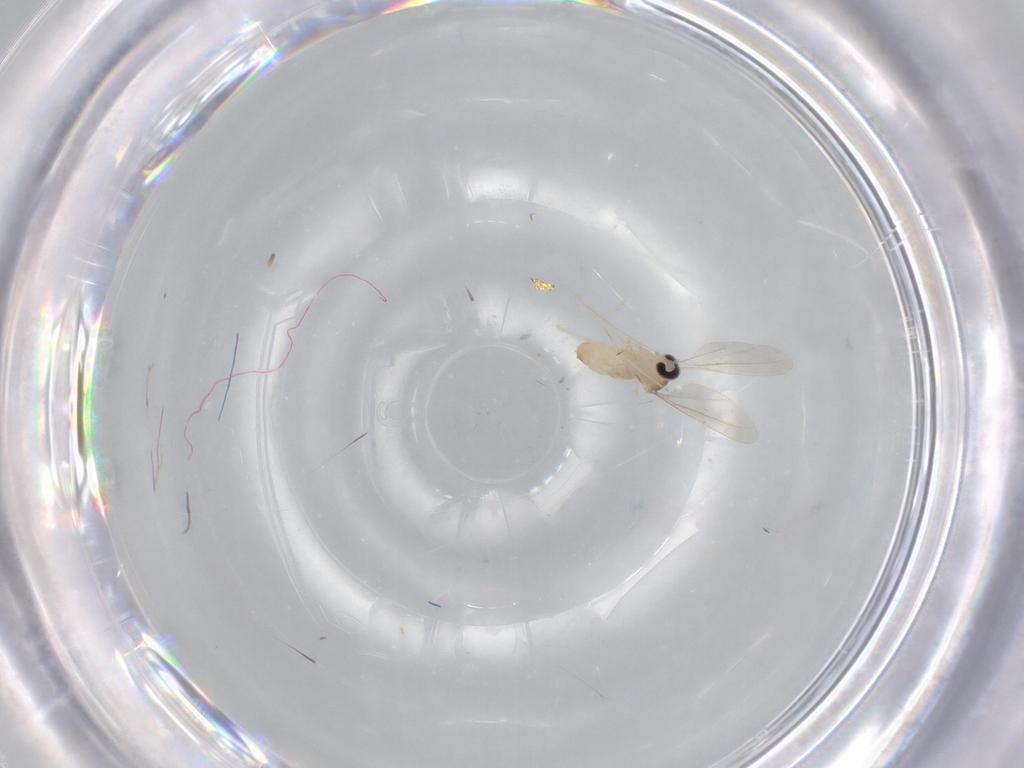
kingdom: Animalia
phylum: Arthropoda
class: Insecta
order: Diptera
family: Cecidomyiidae
